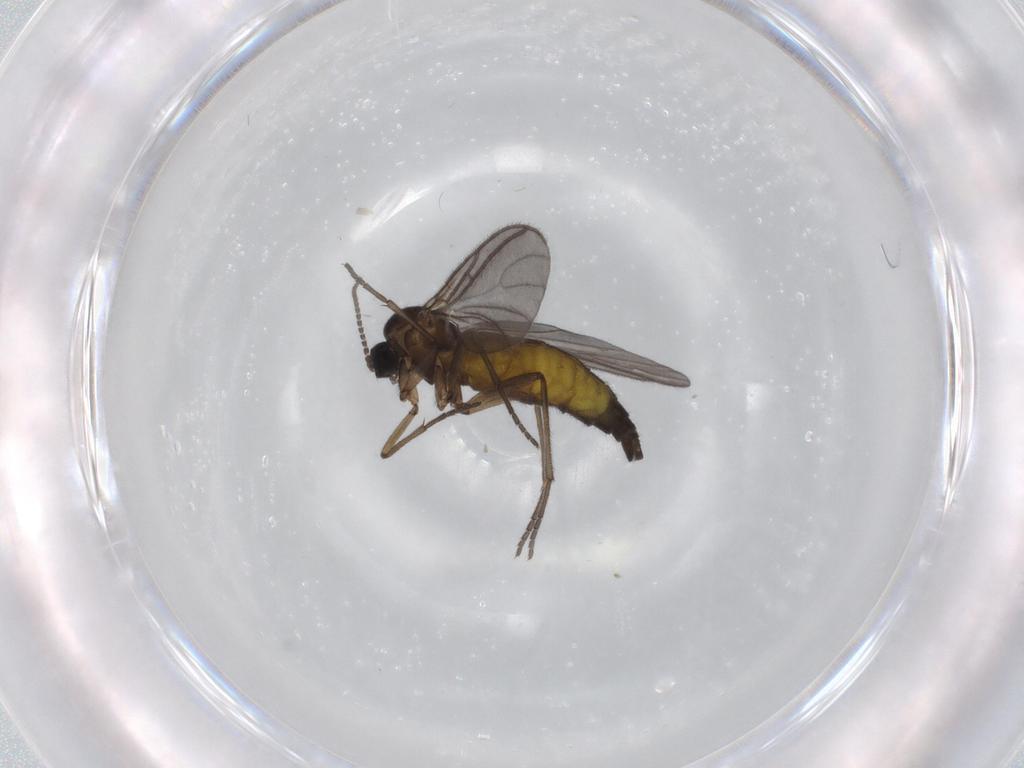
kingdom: Animalia
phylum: Arthropoda
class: Insecta
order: Diptera
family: Sciaridae
